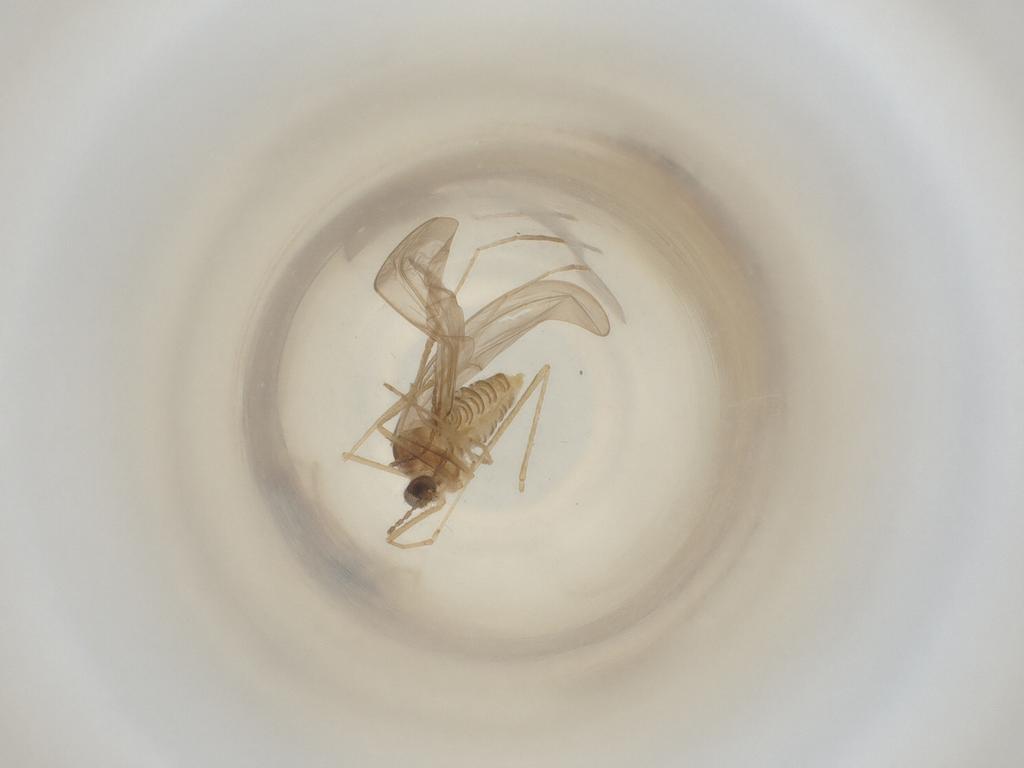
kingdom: Animalia
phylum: Arthropoda
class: Insecta
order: Diptera
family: Cecidomyiidae
